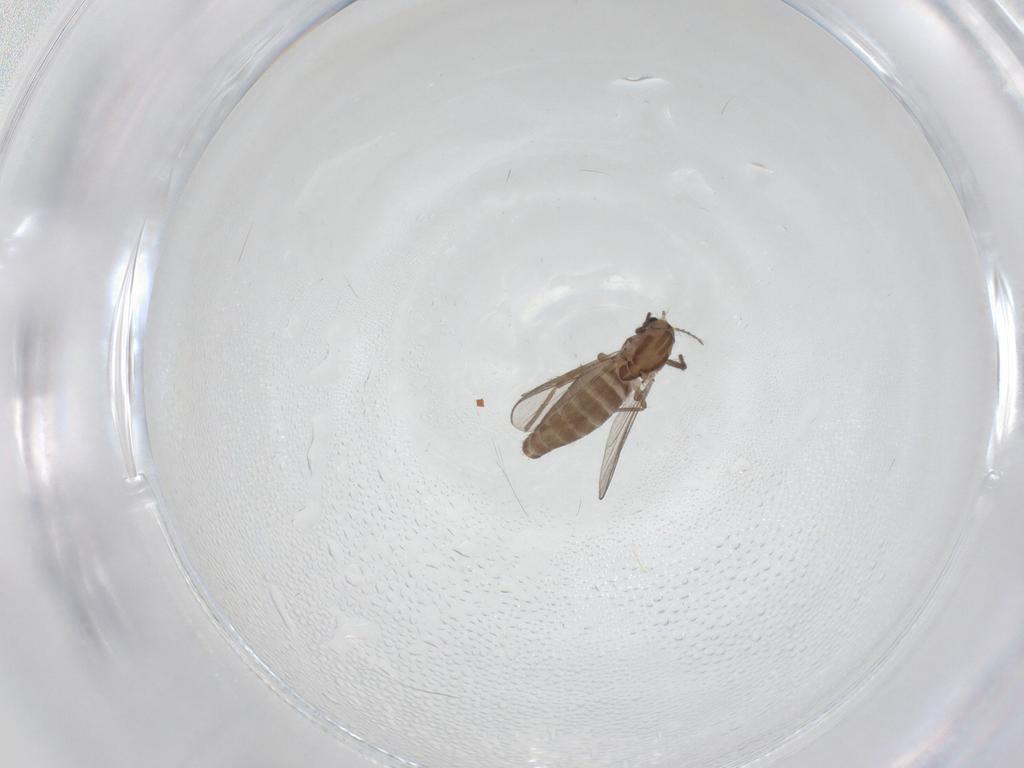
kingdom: Animalia
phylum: Arthropoda
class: Insecta
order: Diptera
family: Chironomidae
